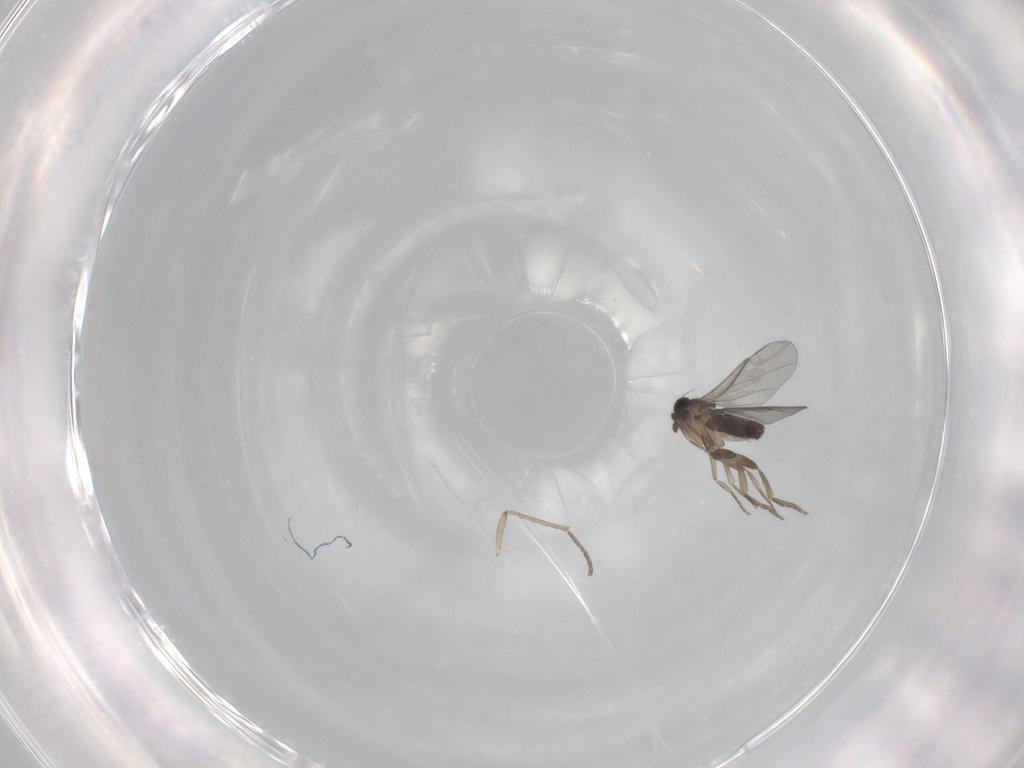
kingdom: Animalia
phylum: Arthropoda
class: Insecta
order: Diptera
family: Psychodidae
